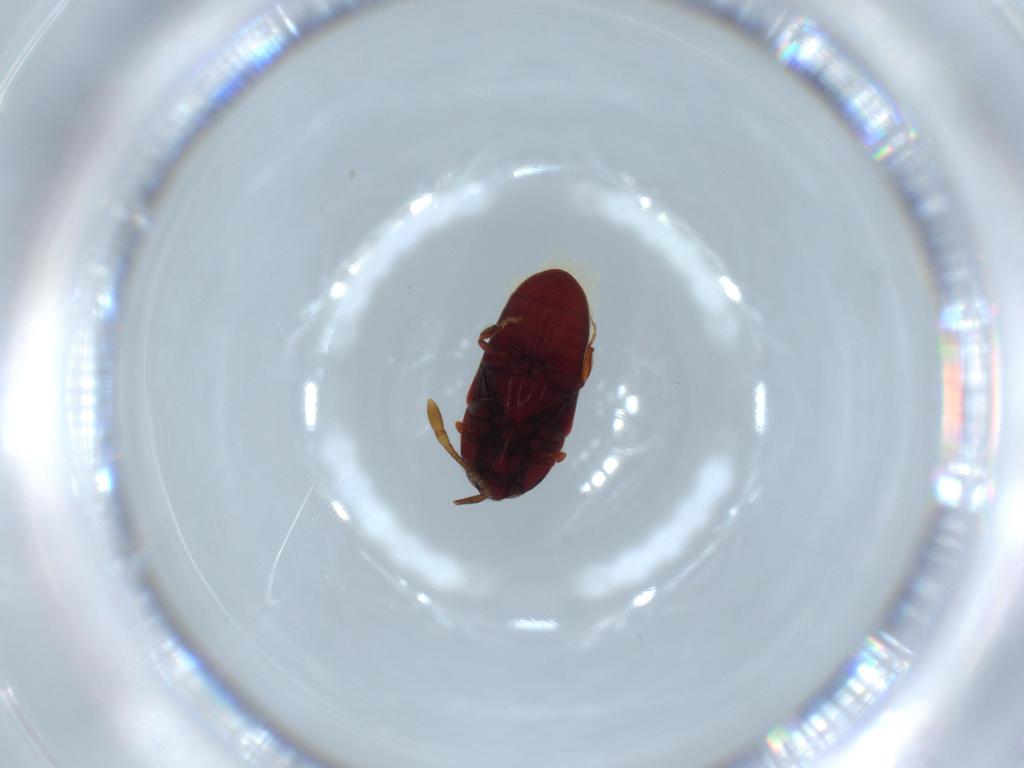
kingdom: Animalia
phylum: Arthropoda
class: Insecta
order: Coleoptera
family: Throscidae
